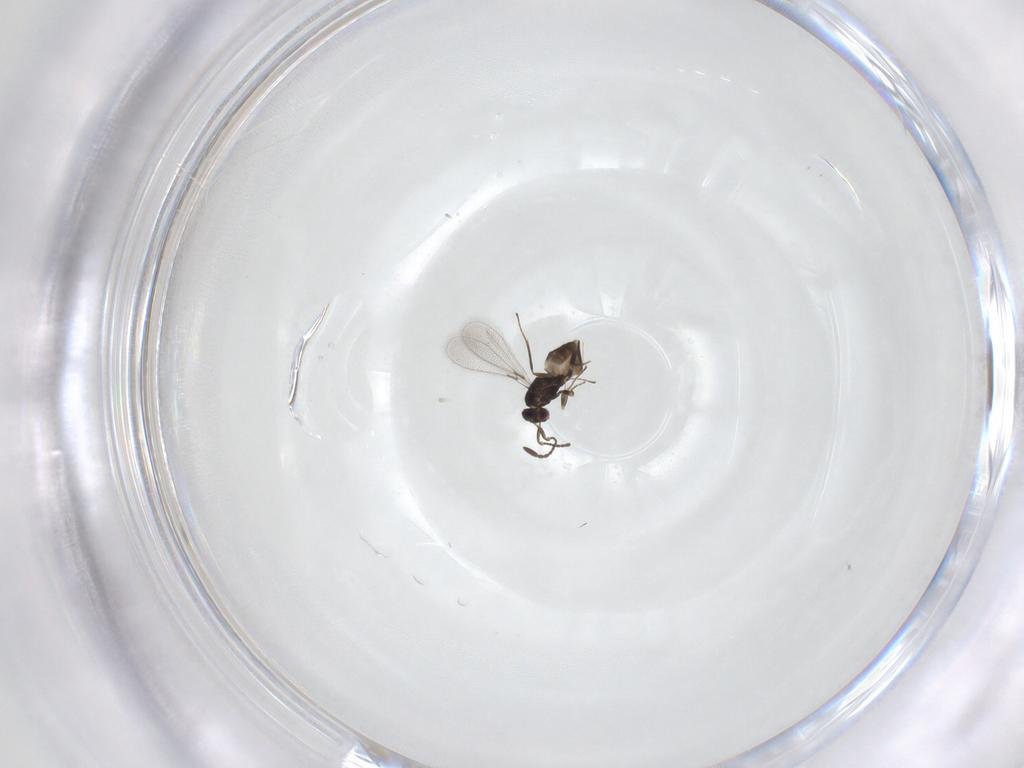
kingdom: Animalia
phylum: Arthropoda
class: Insecta
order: Hymenoptera
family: Mymaridae
